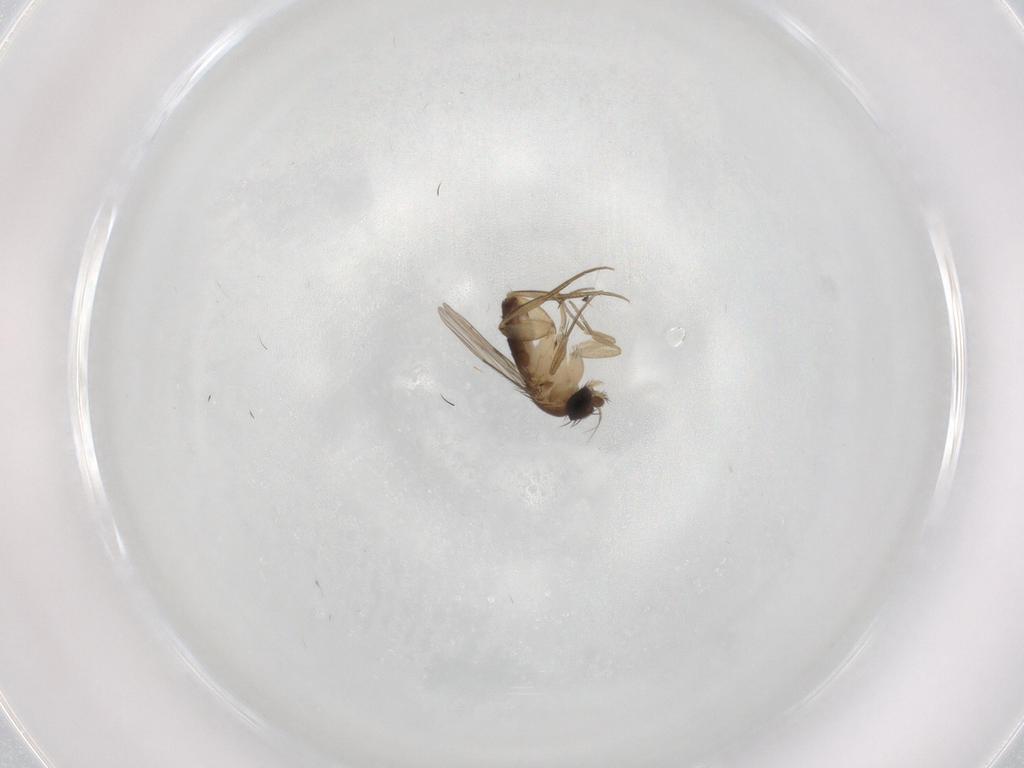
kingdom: Animalia
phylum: Arthropoda
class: Insecta
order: Diptera
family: Phoridae
